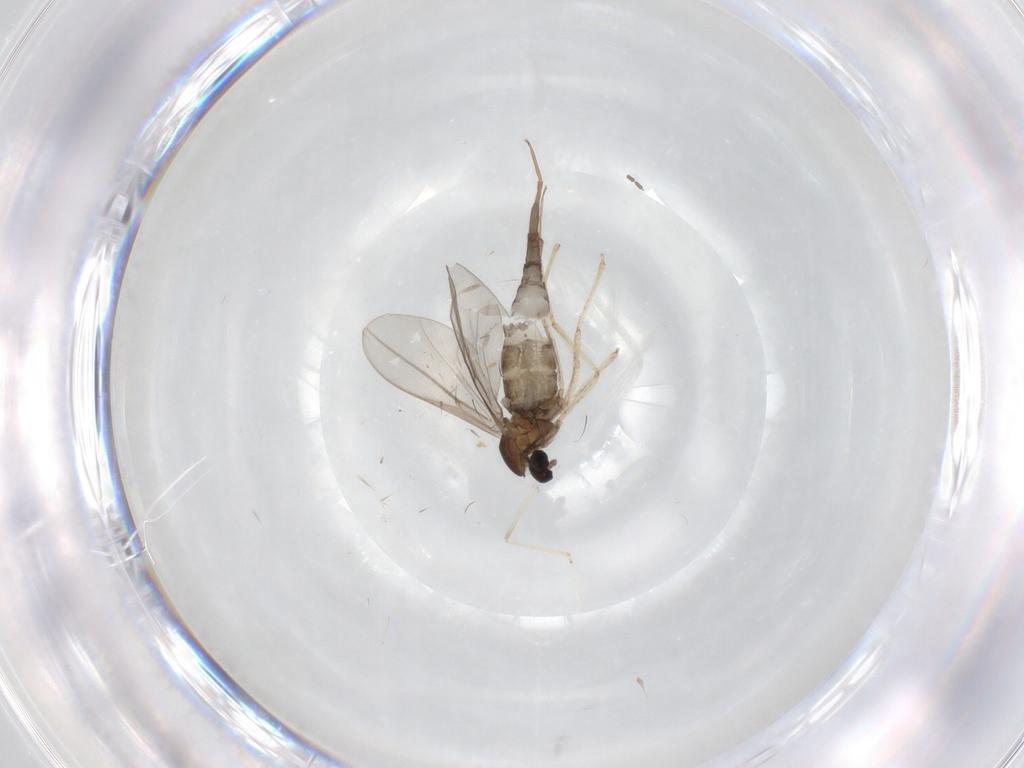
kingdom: Animalia
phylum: Arthropoda
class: Insecta
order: Diptera
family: Cecidomyiidae
